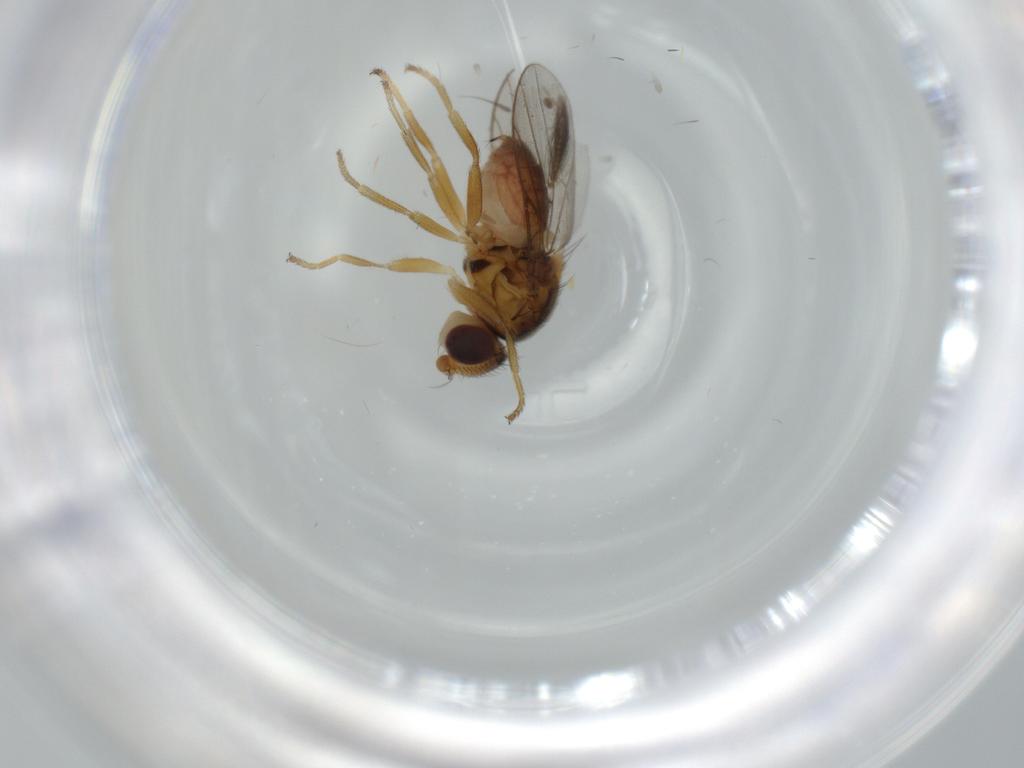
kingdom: Animalia
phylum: Arthropoda
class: Insecta
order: Diptera
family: Chloropidae
